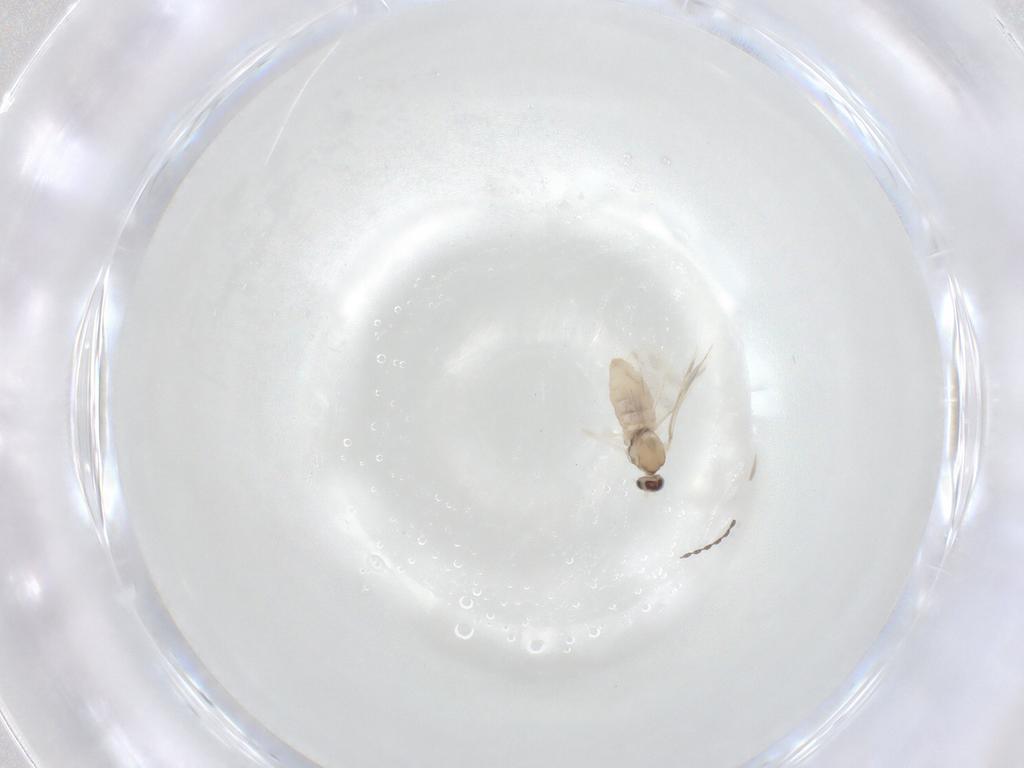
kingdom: Animalia
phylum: Arthropoda
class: Insecta
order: Diptera
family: Cecidomyiidae
